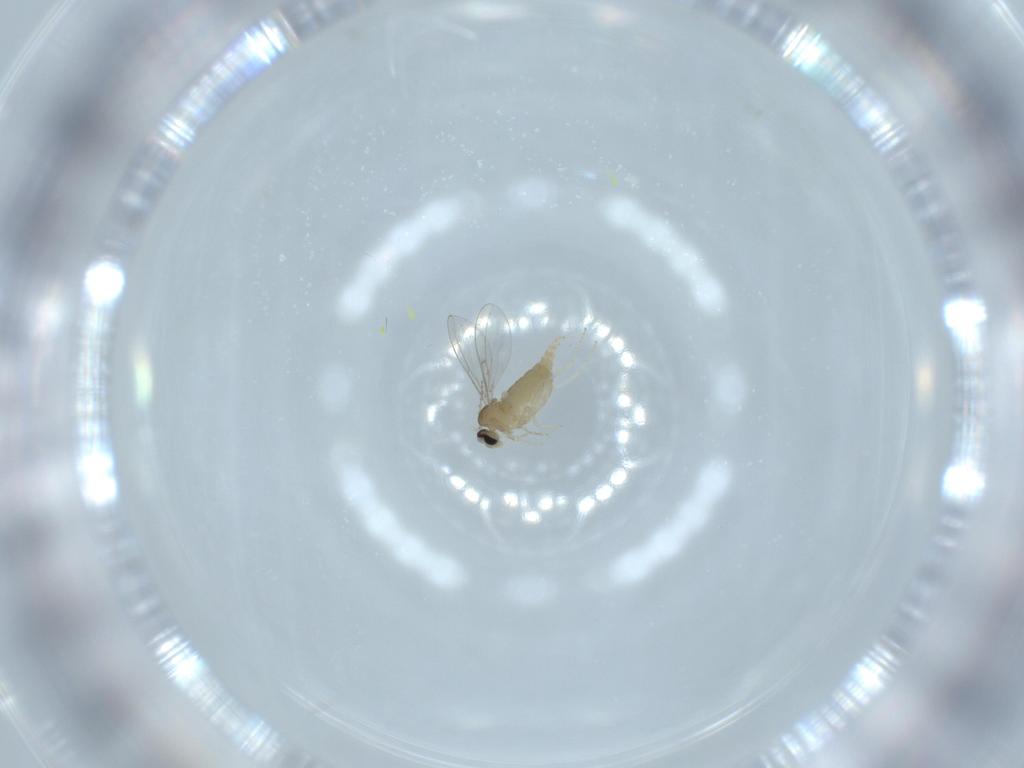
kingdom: Animalia
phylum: Arthropoda
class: Insecta
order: Diptera
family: Cecidomyiidae
